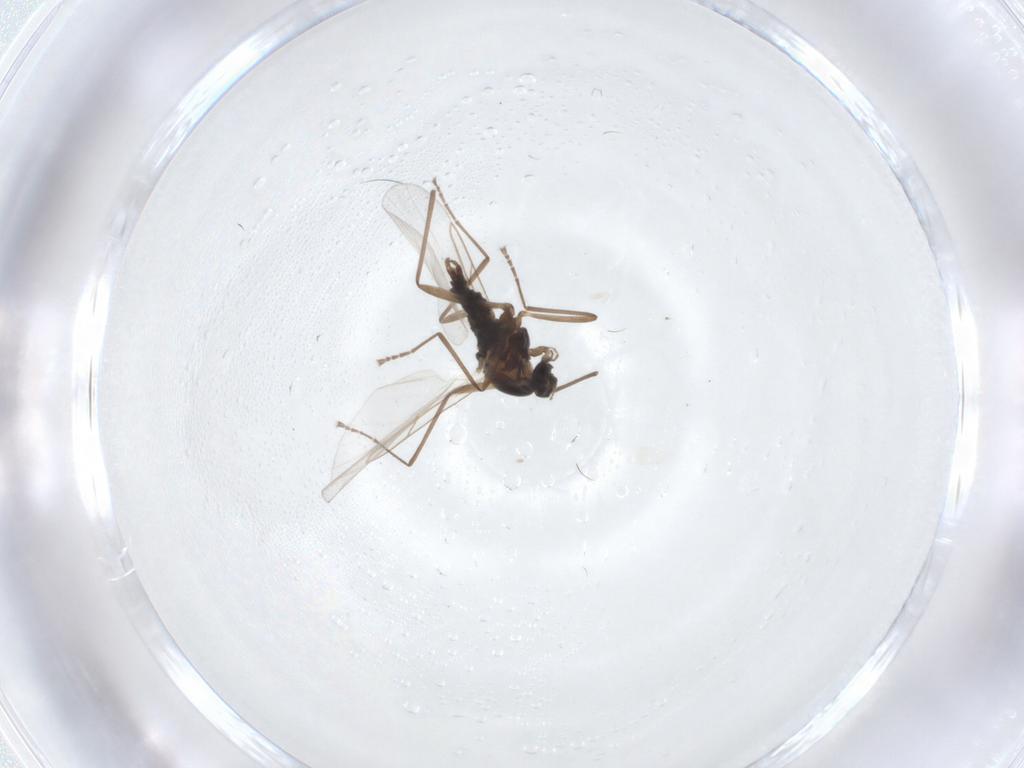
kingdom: Animalia
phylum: Arthropoda
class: Insecta
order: Diptera
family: Cecidomyiidae
